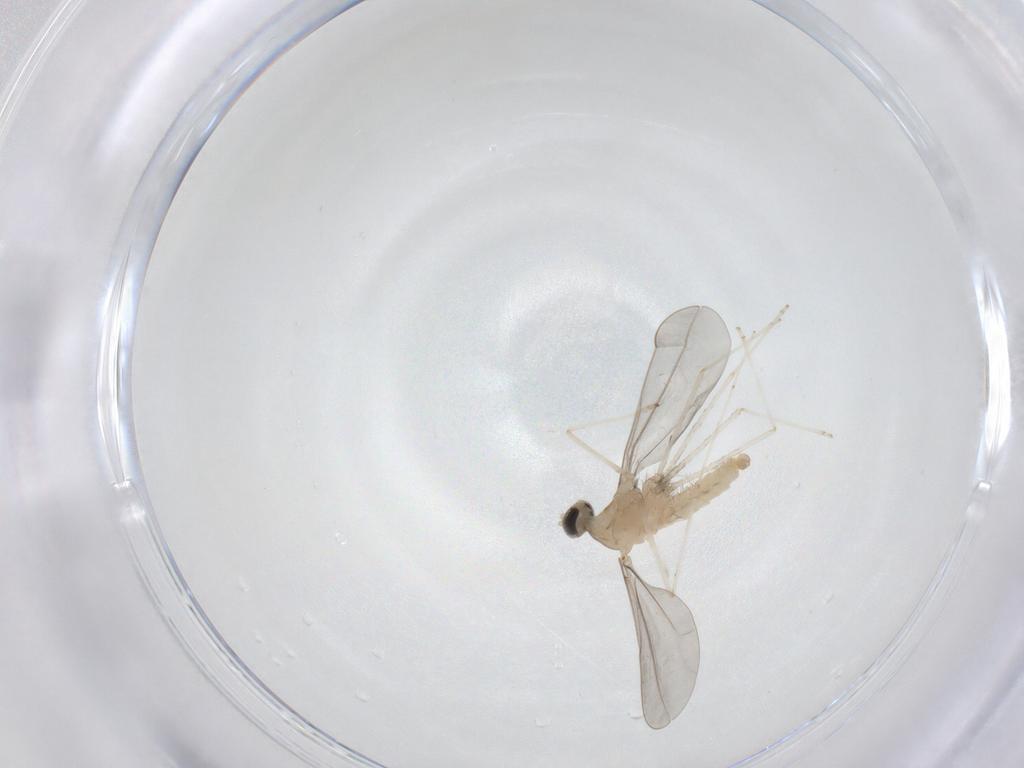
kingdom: Animalia
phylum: Arthropoda
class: Insecta
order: Diptera
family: Cecidomyiidae
